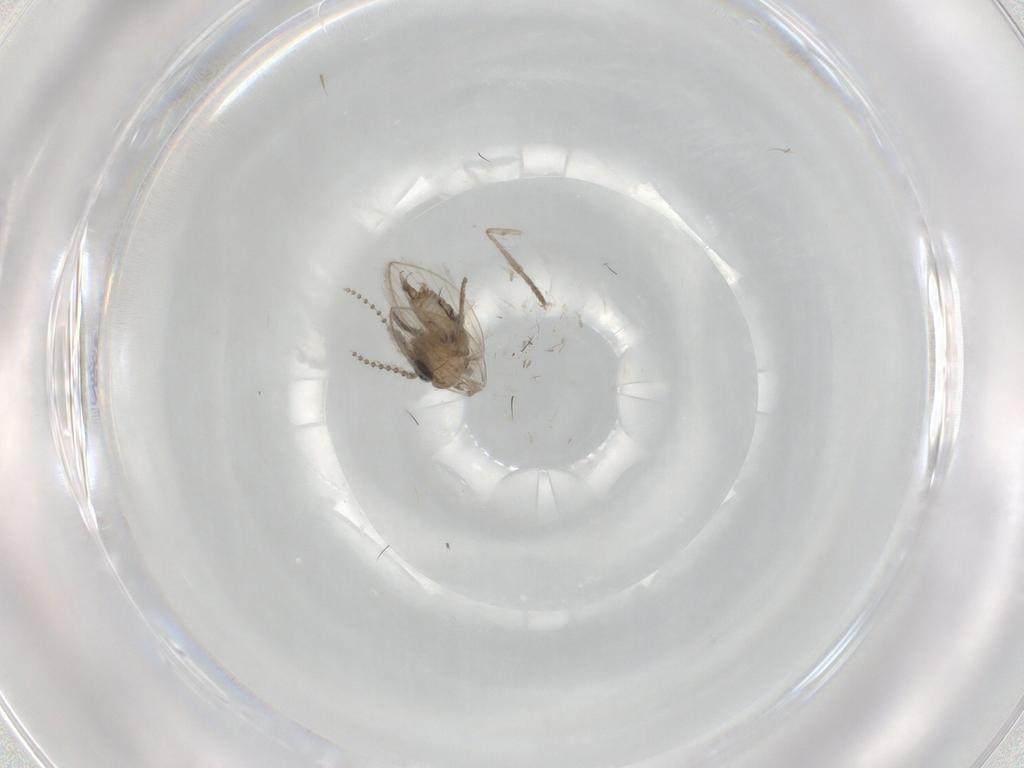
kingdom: Animalia
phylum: Arthropoda
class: Insecta
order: Diptera
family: Psychodidae
